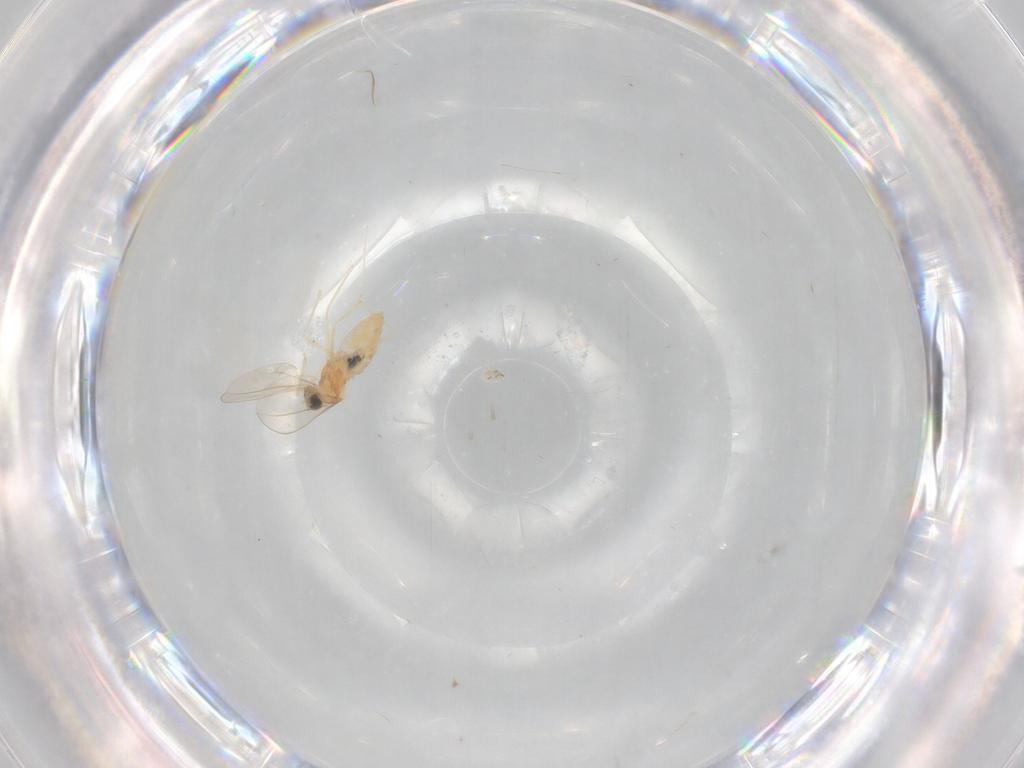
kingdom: Animalia
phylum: Arthropoda
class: Insecta
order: Diptera
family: Cecidomyiidae
